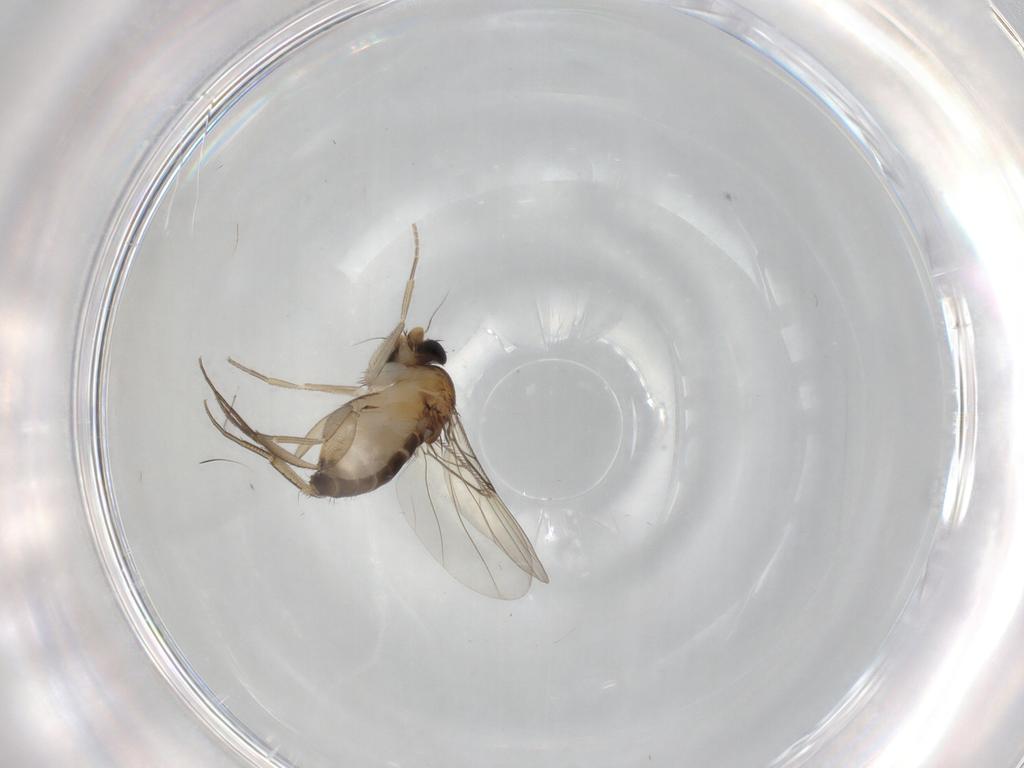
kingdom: Animalia
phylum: Arthropoda
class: Insecta
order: Diptera
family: Phoridae
